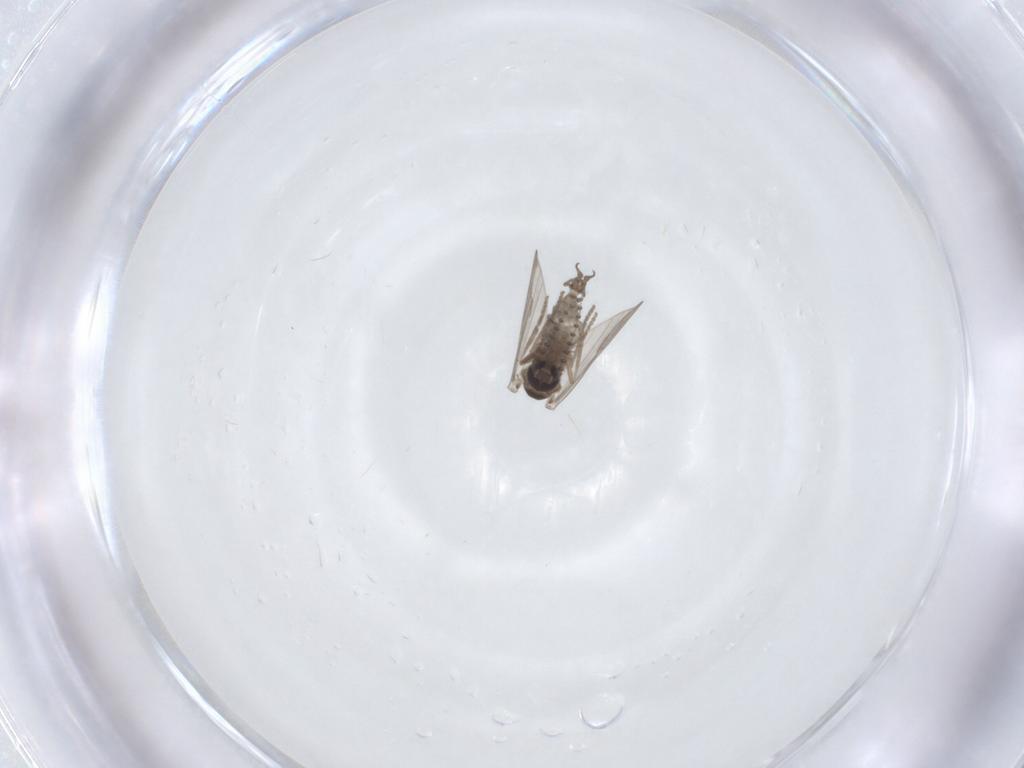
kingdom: Animalia
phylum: Arthropoda
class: Insecta
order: Diptera
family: Psychodidae
